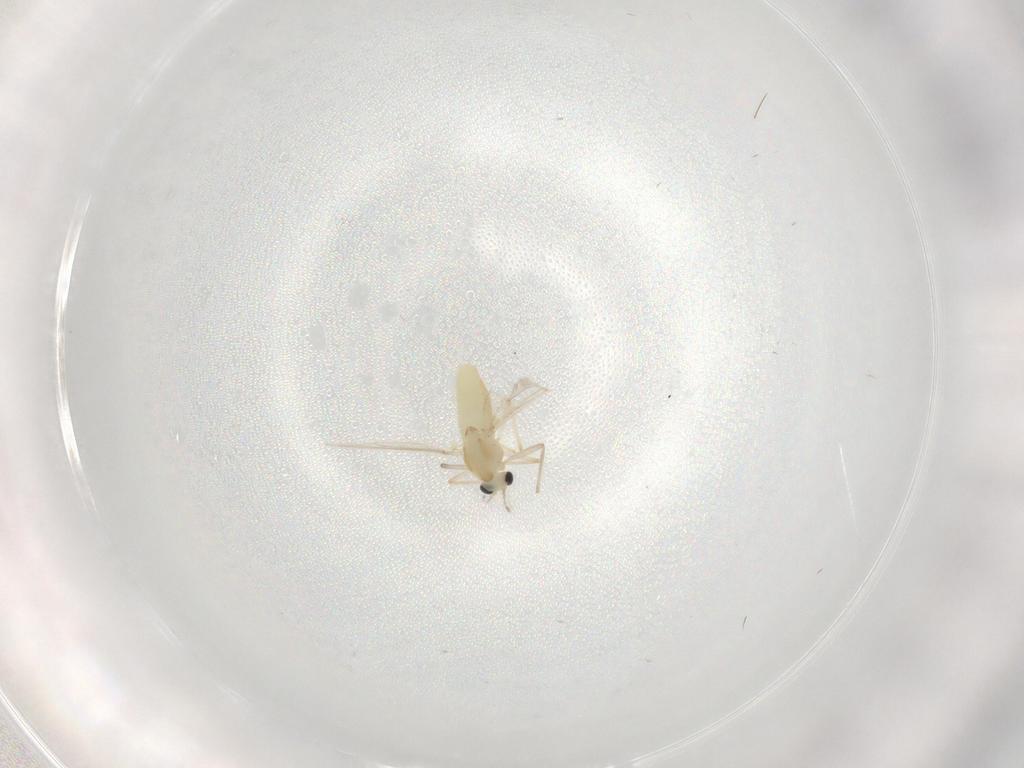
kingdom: Animalia
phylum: Arthropoda
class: Insecta
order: Diptera
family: Chironomidae
